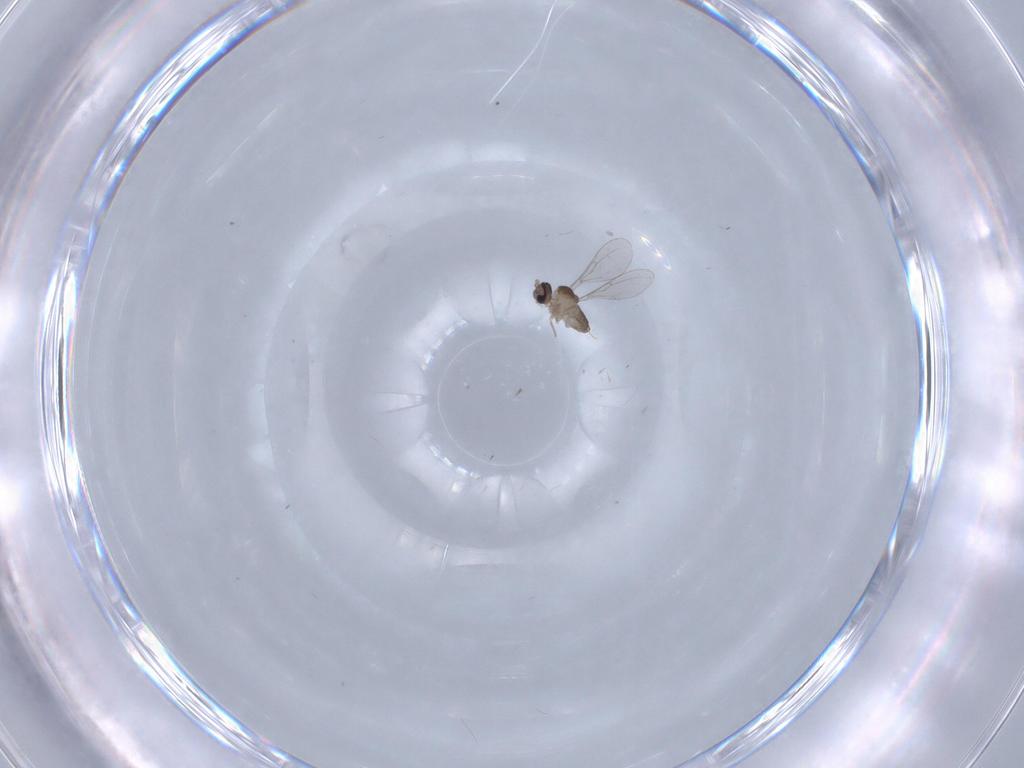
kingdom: Animalia
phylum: Arthropoda
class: Insecta
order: Diptera
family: Cecidomyiidae
